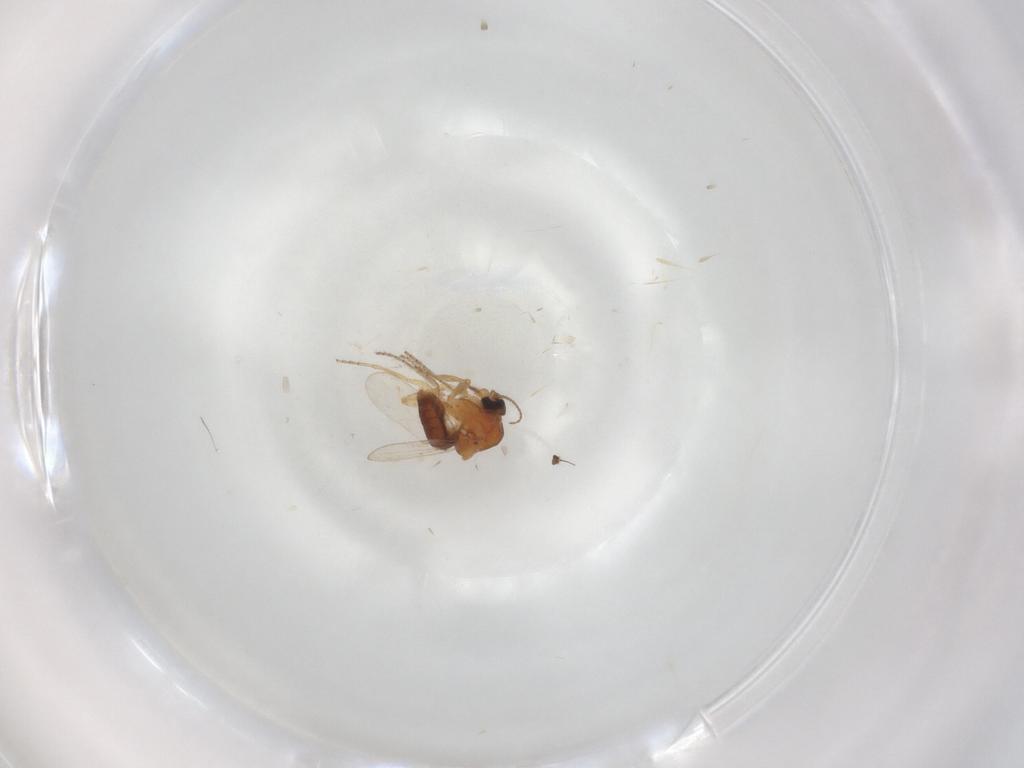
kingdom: Animalia
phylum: Arthropoda
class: Insecta
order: Diptera
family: Ceratopogonidae
